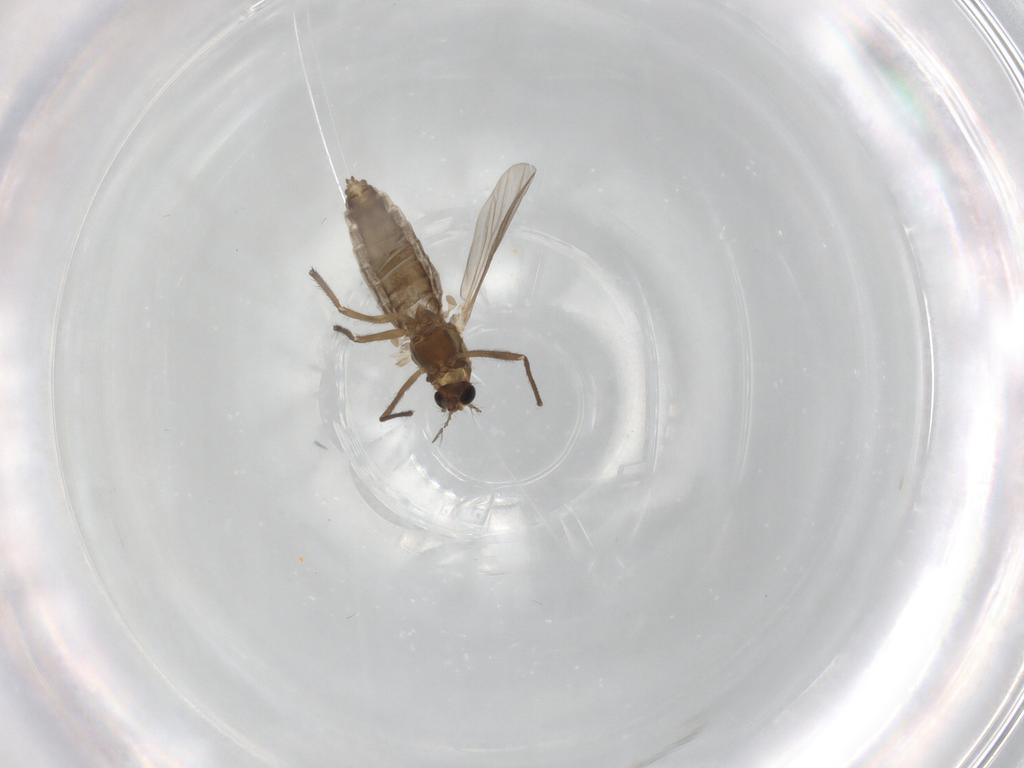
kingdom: Animalia
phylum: Arthropoda
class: Insecta
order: Diptera
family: Chironomidae
